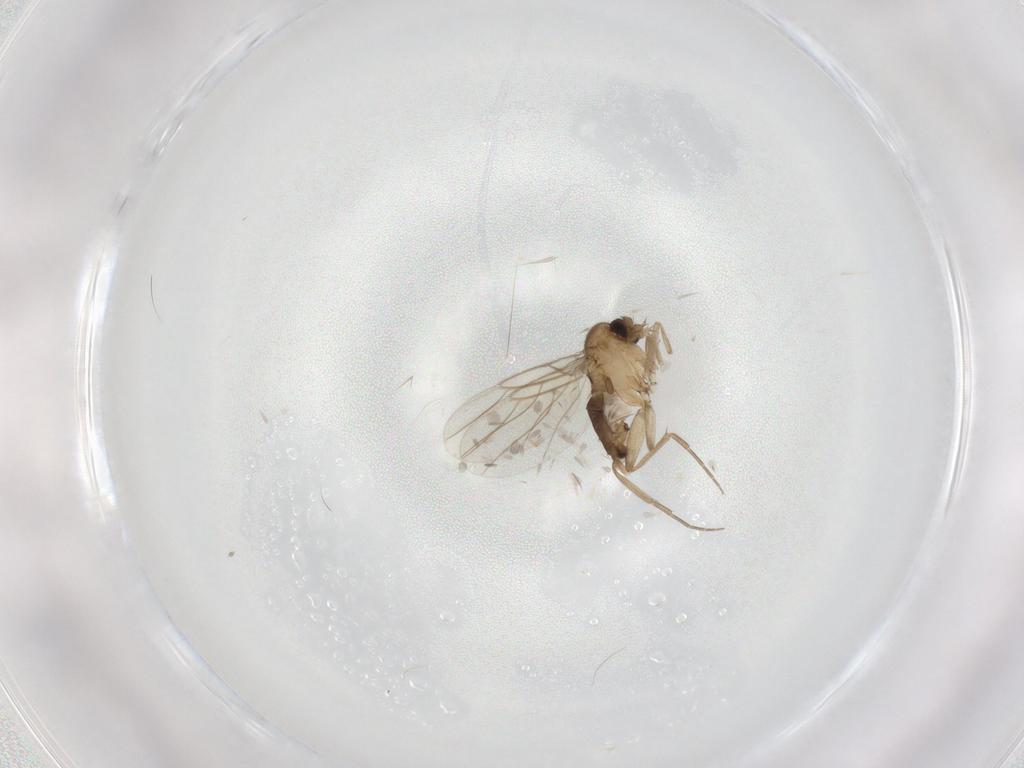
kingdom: Animalia
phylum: Arthropoda
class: Insecta
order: Diptera
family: Phoridae
